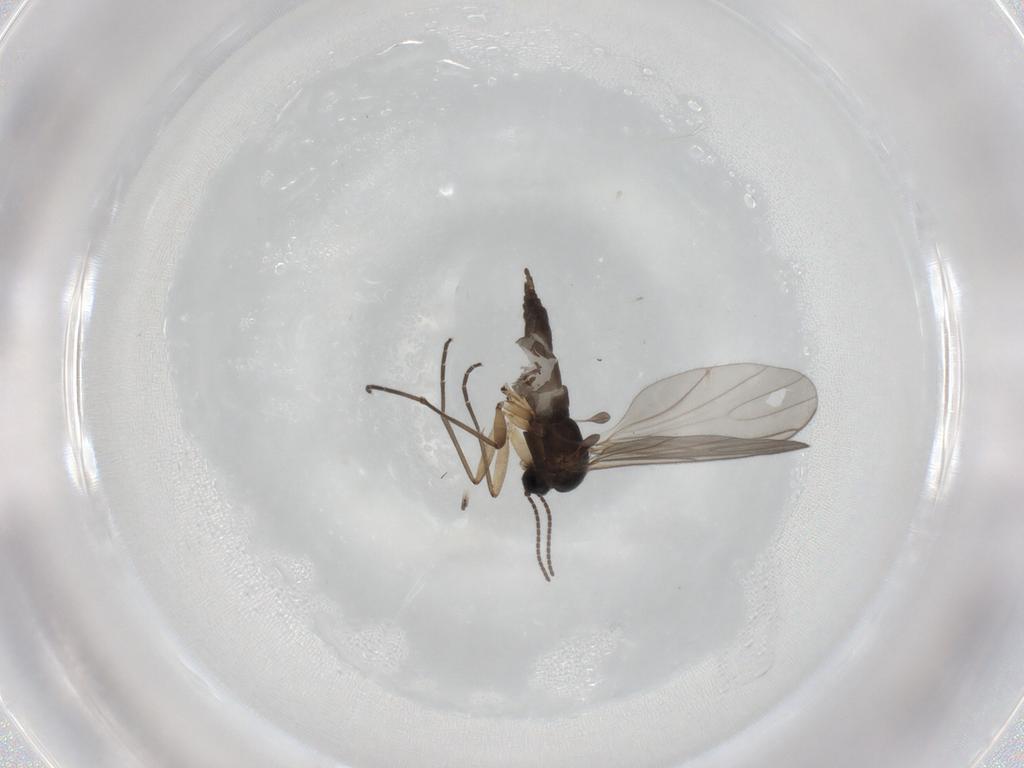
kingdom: Animalia
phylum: Arthropoda
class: Insecta
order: Diptera
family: Sciaridae
